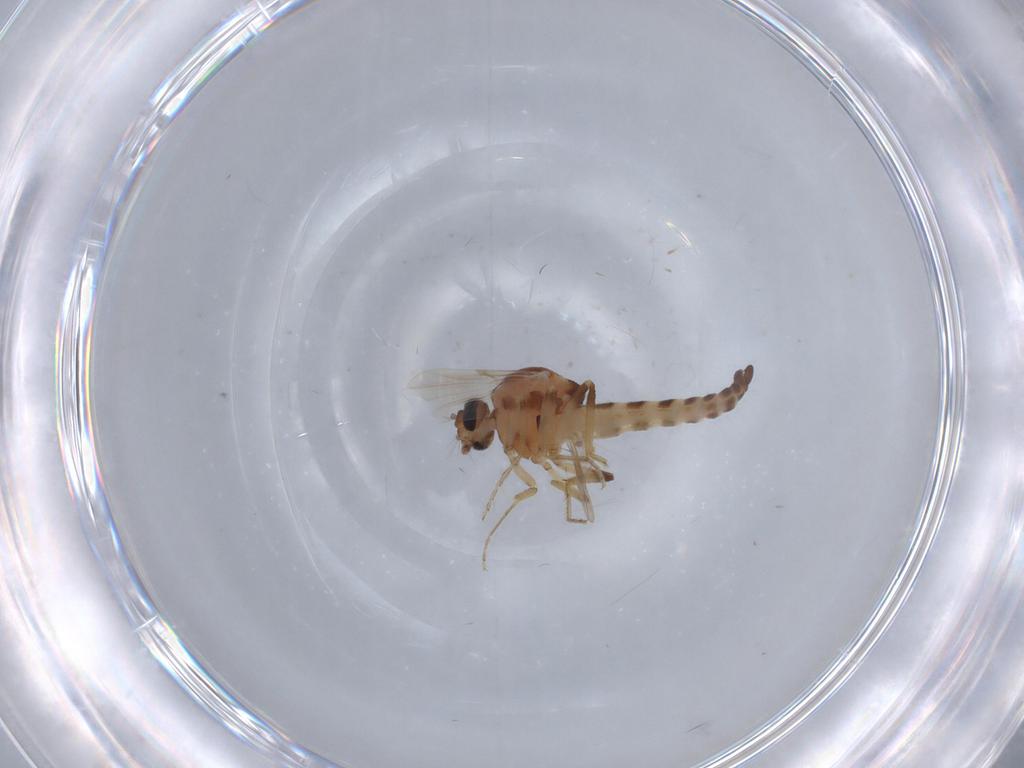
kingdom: Animalia
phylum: Arthropoda
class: Insecta
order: Diptera
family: Ceratopogonidae
